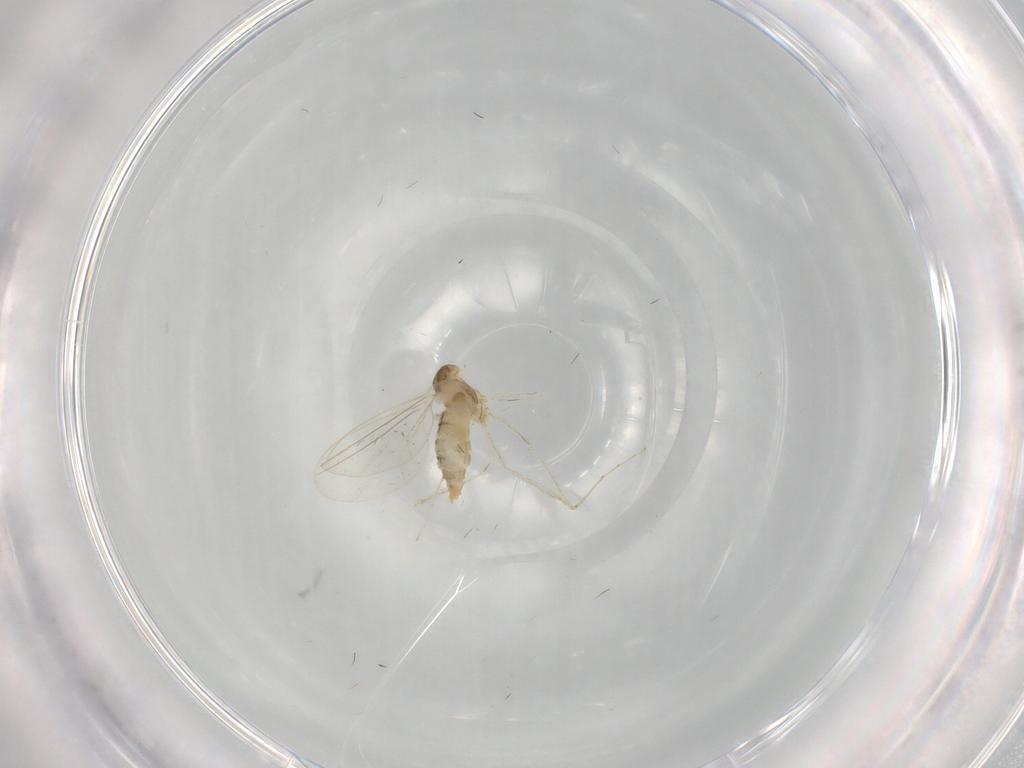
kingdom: Animalia
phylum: Arthropoda
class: Insecta
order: Diptera
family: Cecidomyiidae
